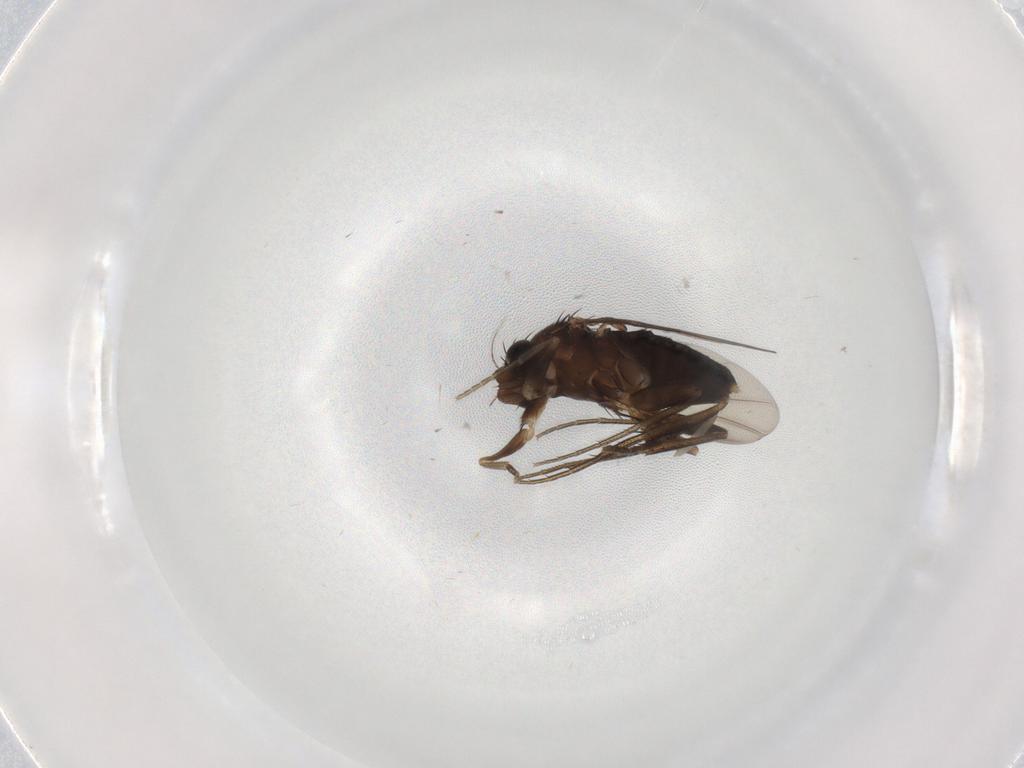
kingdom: Animalia
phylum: Arthropoda
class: Insecta
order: Diptera
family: Phoridae
